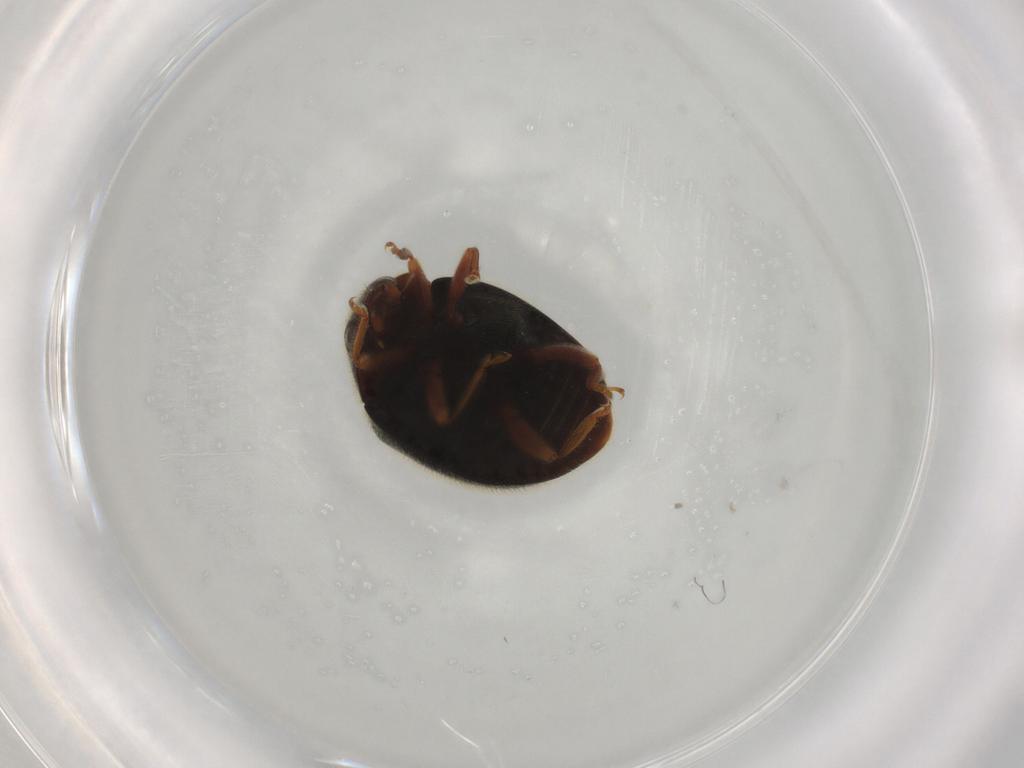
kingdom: Animalia
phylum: Arthropoda
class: Insecta
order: Coleoptera
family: Coccinellidae
